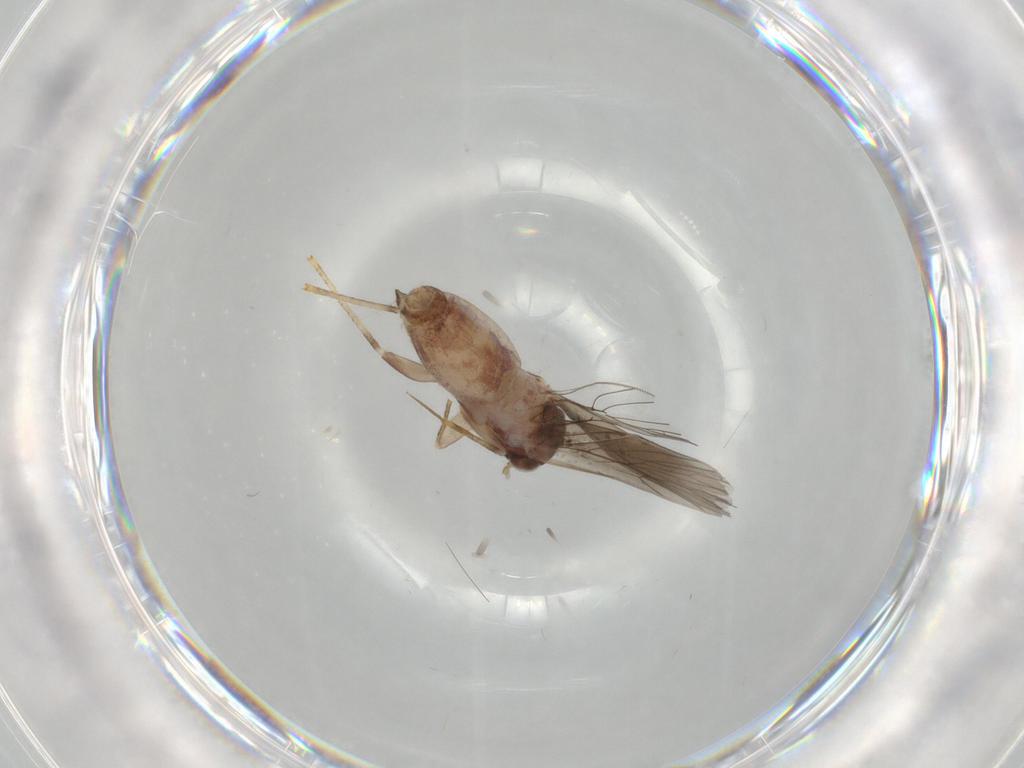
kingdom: Animalia
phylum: Arthropoda
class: Insecta
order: Psocodea
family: Lepidopsocidae
